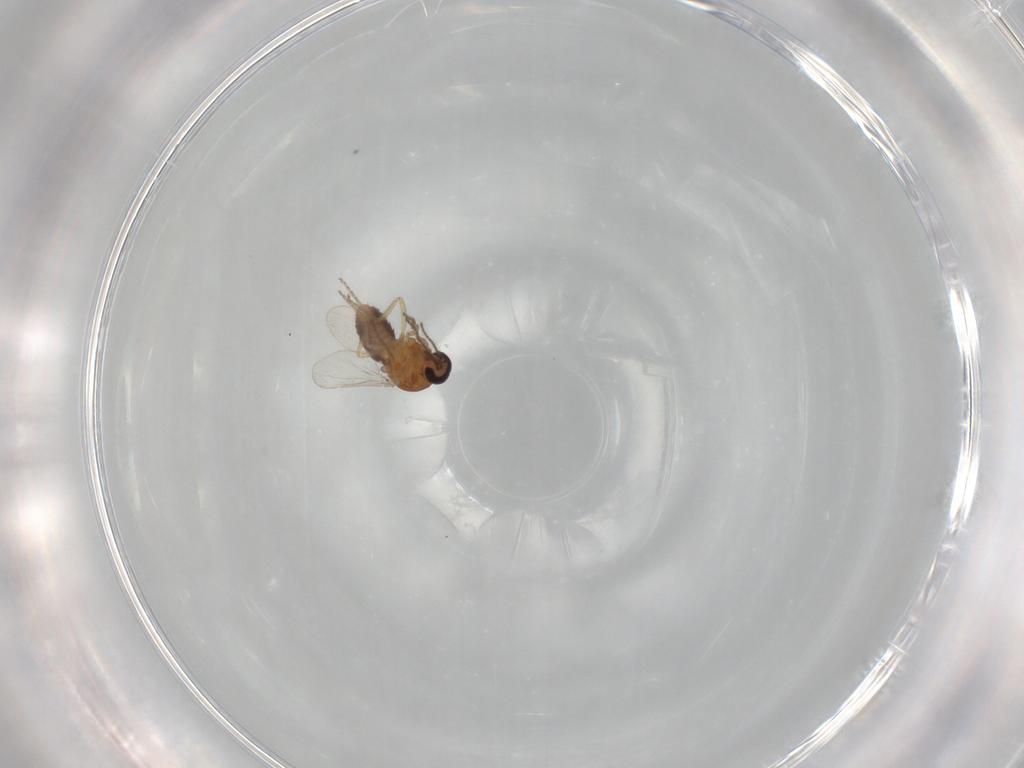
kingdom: Animalia
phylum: Arthropoda
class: Insecta
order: Diptera
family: Ceratopogonidae
